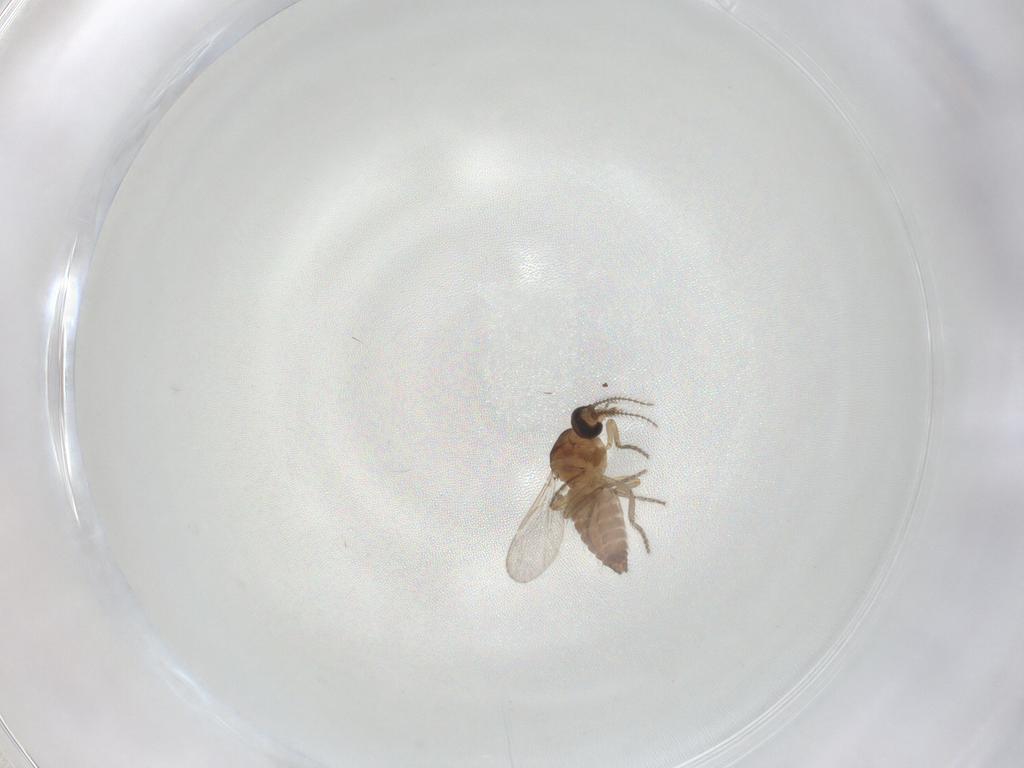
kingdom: Animalia
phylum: Arthropoda
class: Insecta
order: Diptera
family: Ceratopogonidae
